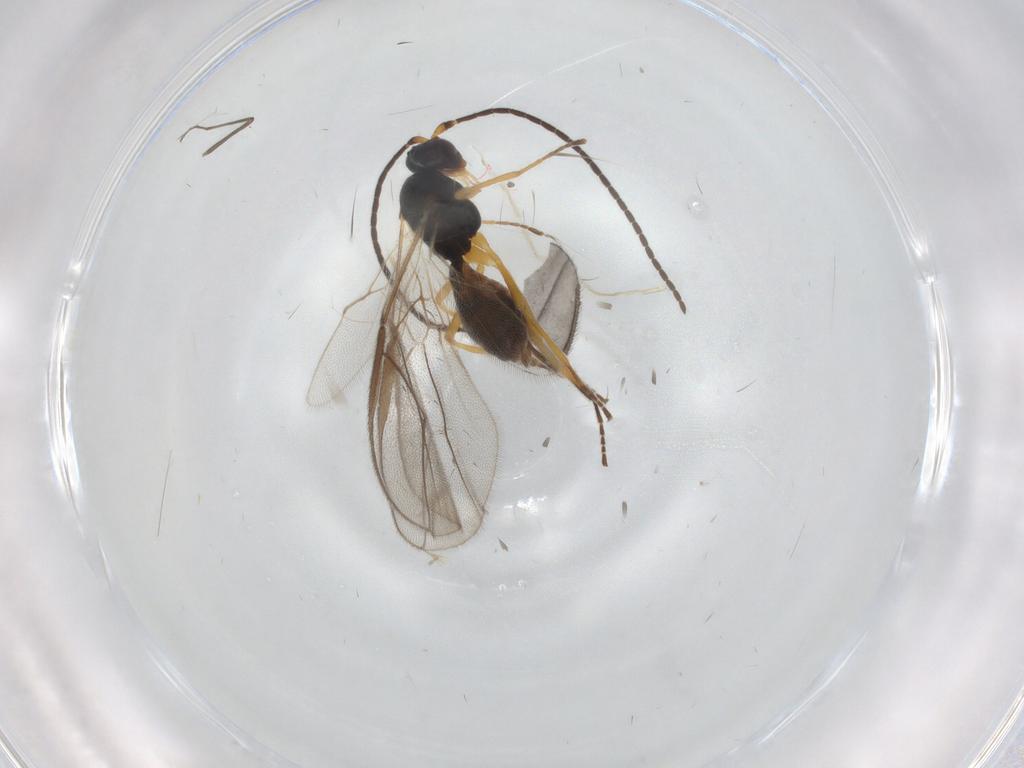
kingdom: Animalia
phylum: Arthropoda
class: Insecta
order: Hymenoptera
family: Braconidae
